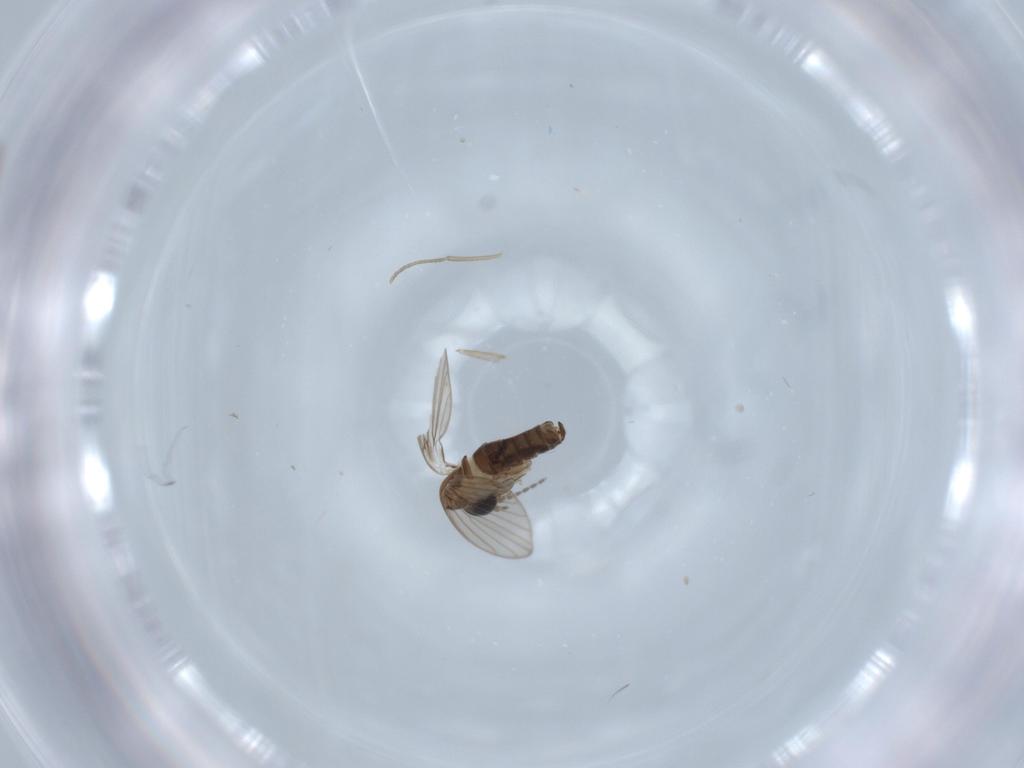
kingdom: Animalia
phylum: Arthropoda
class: Insecta
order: Diptera
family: Psychodidae
